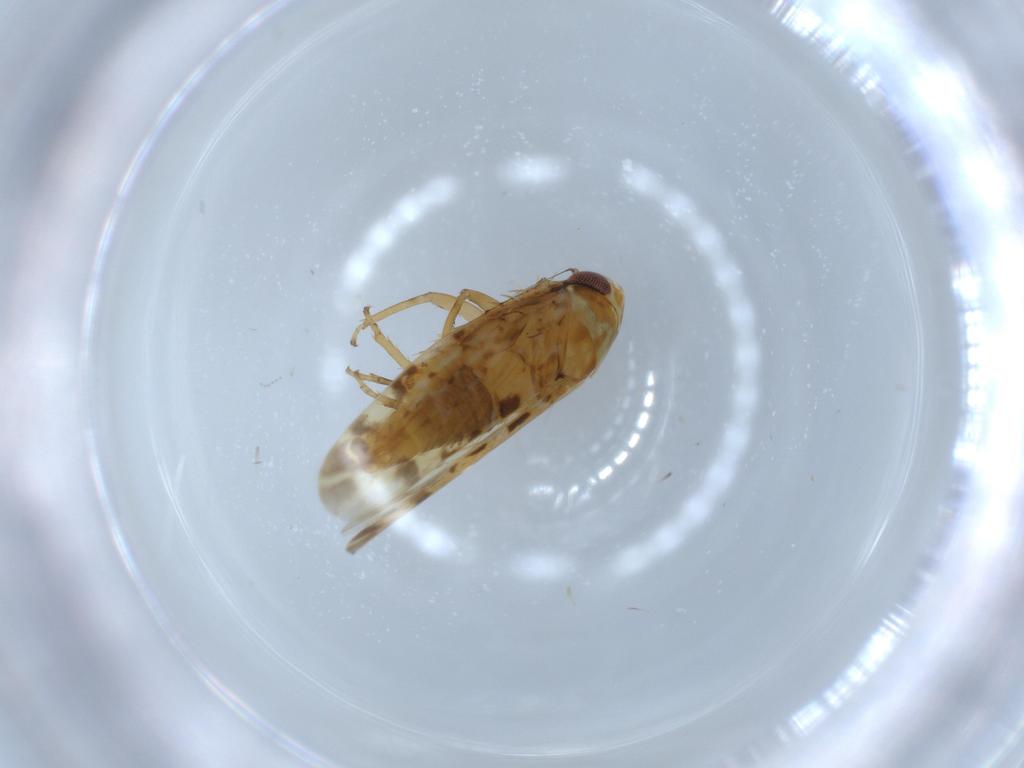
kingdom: Animalia
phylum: Arthropoda
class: Insecta
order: Hemiptera
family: Cicadellidae
